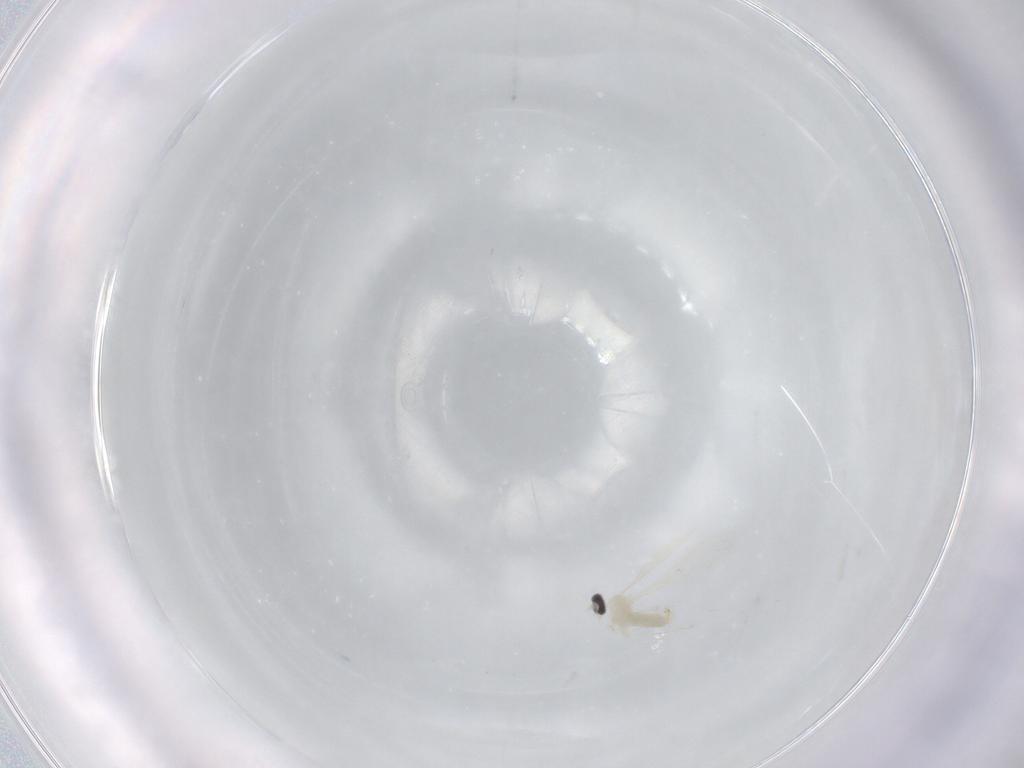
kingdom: Animalia
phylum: Arthropoda
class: Insecta
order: Diptera
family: Cecidomyiidae
